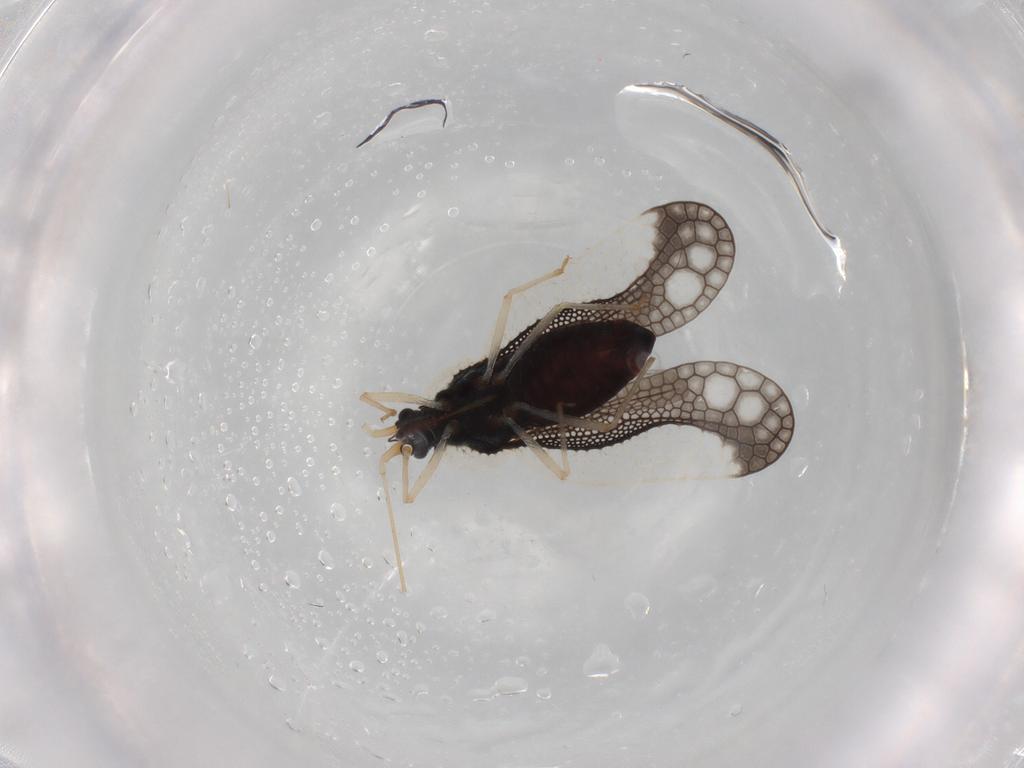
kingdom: Animalia
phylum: Arthropoda
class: Insecta
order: Hemiptera
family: Tingidae
